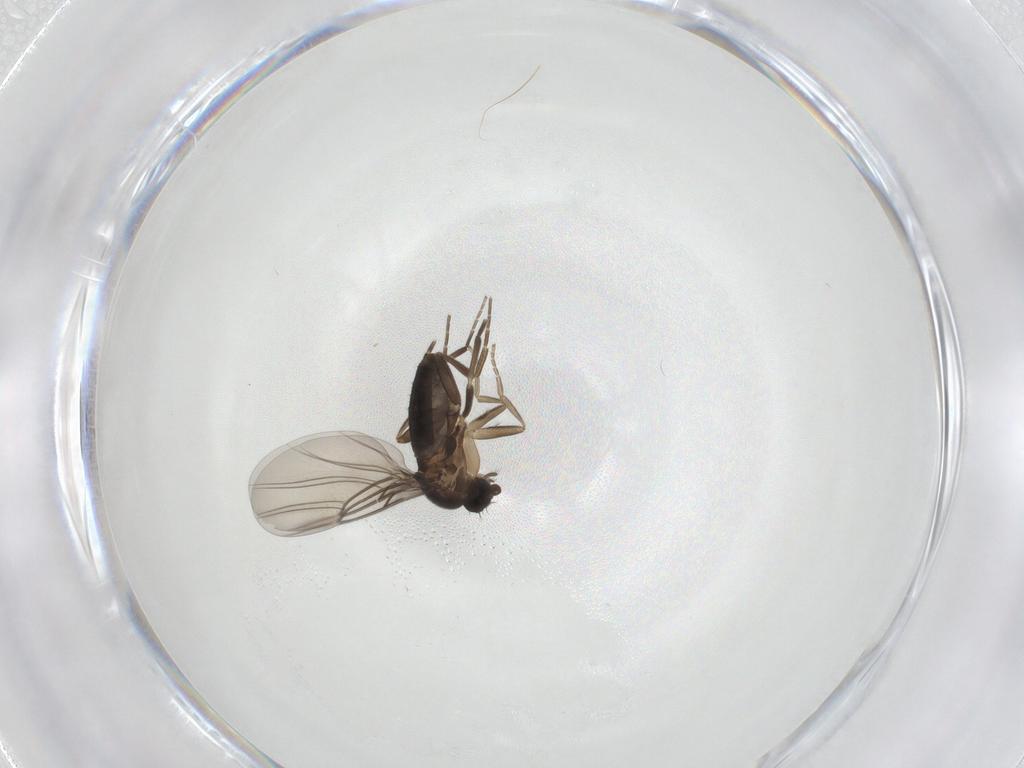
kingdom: Animalia
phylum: Arthropoda
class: Insecta
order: Diptera
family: Phoridae
